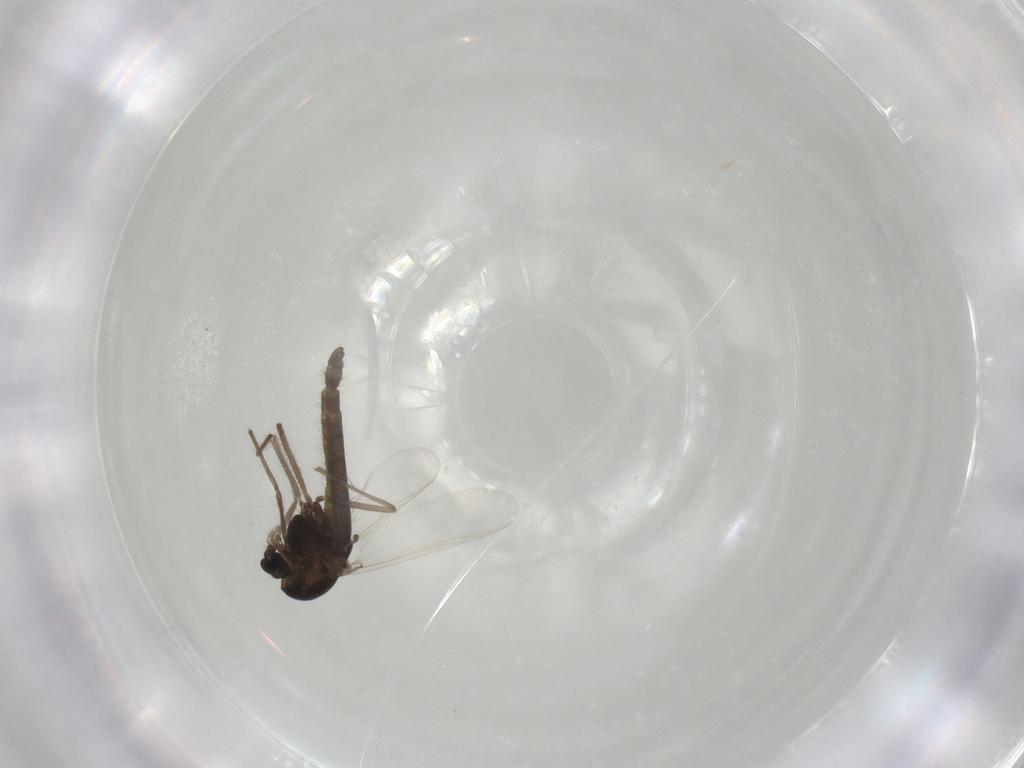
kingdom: Animalia
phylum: Arthropoda
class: Insecta
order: Diptera
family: Chironomidae
